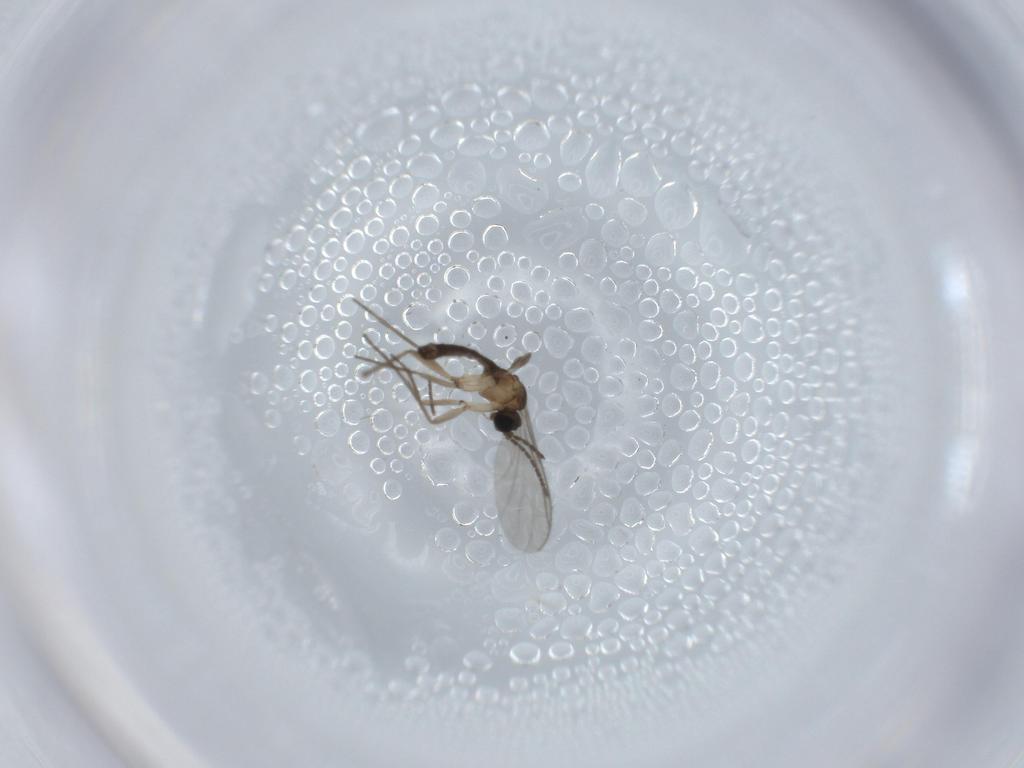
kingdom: Animalia
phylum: Arthropoda
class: Insecta
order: Diptera
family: Sciaridae
